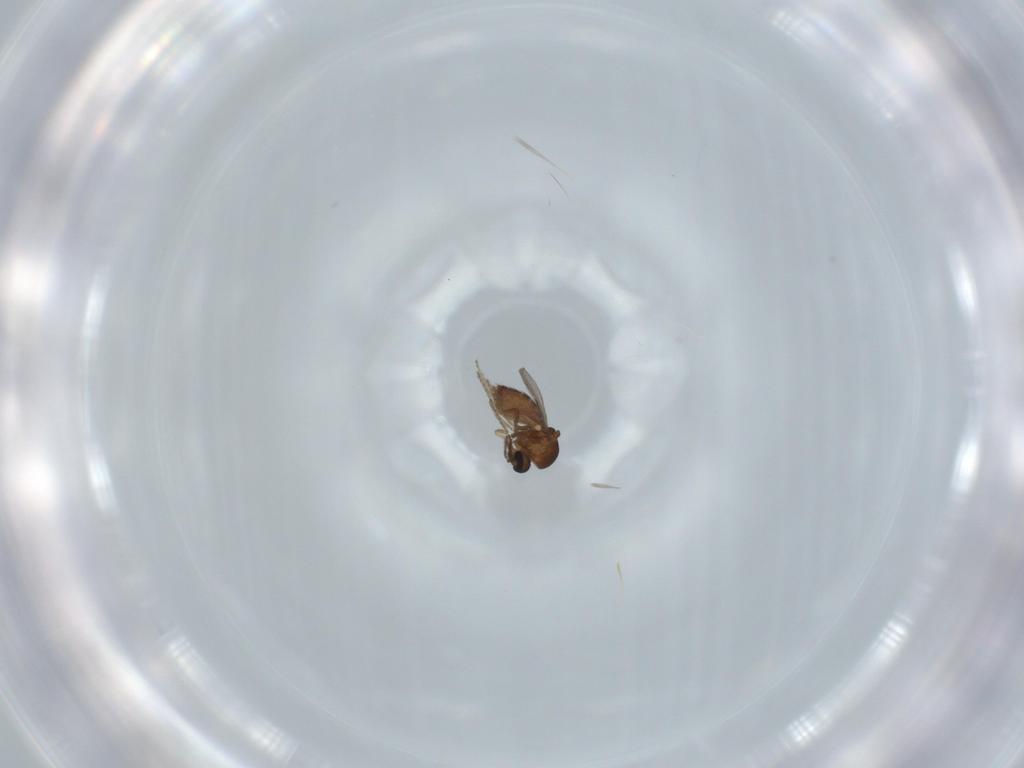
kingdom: Animalia
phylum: Arthropoda
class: Insecta
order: Diptera
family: Ceratopogonidae
